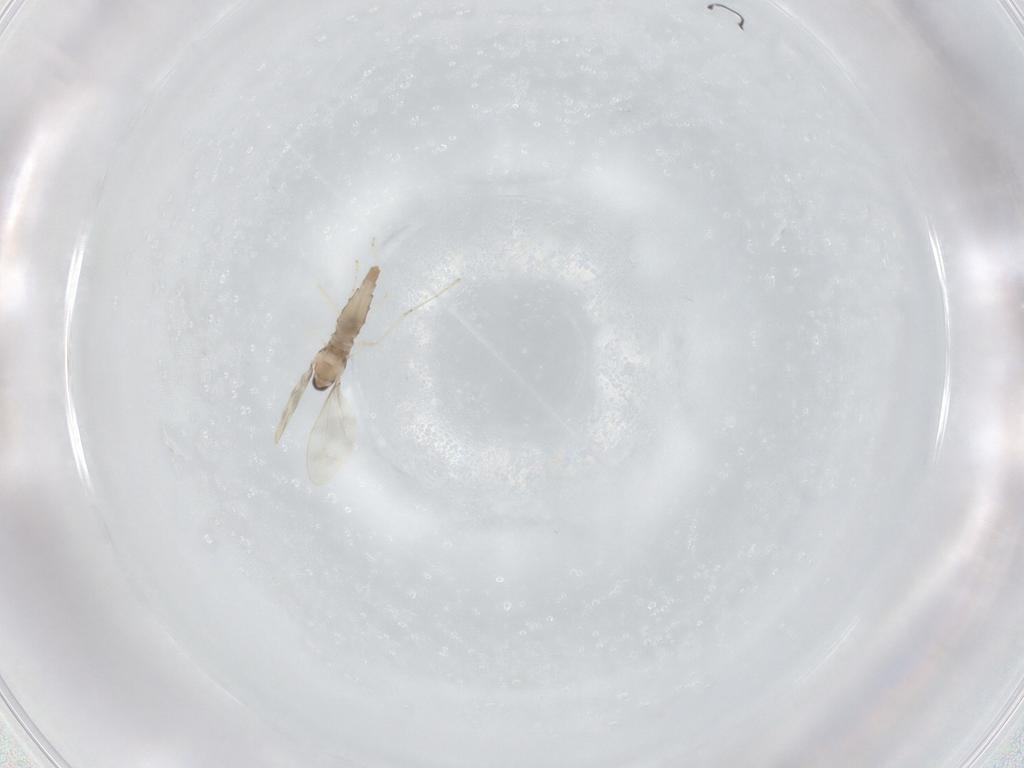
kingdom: Animalia
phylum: Arthropoda
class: Insecta
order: Diptera
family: Cecidomyiidae
